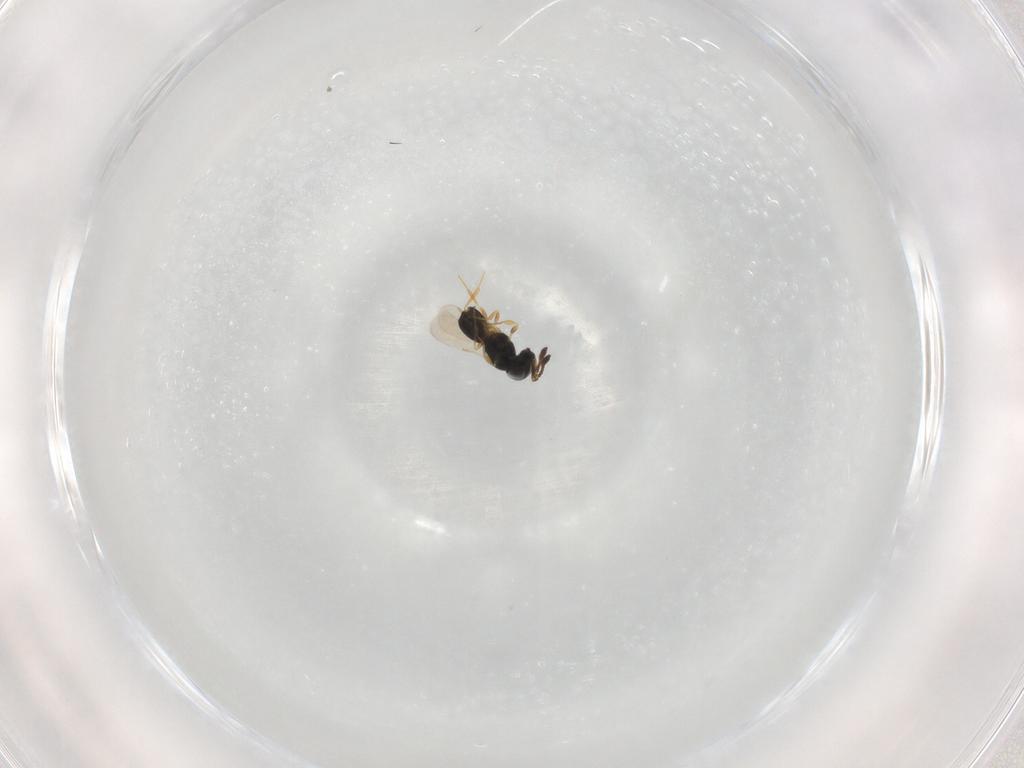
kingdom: Animalia
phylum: Arthropoda
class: Insecta
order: Hymenoptera
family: Scelionidae
